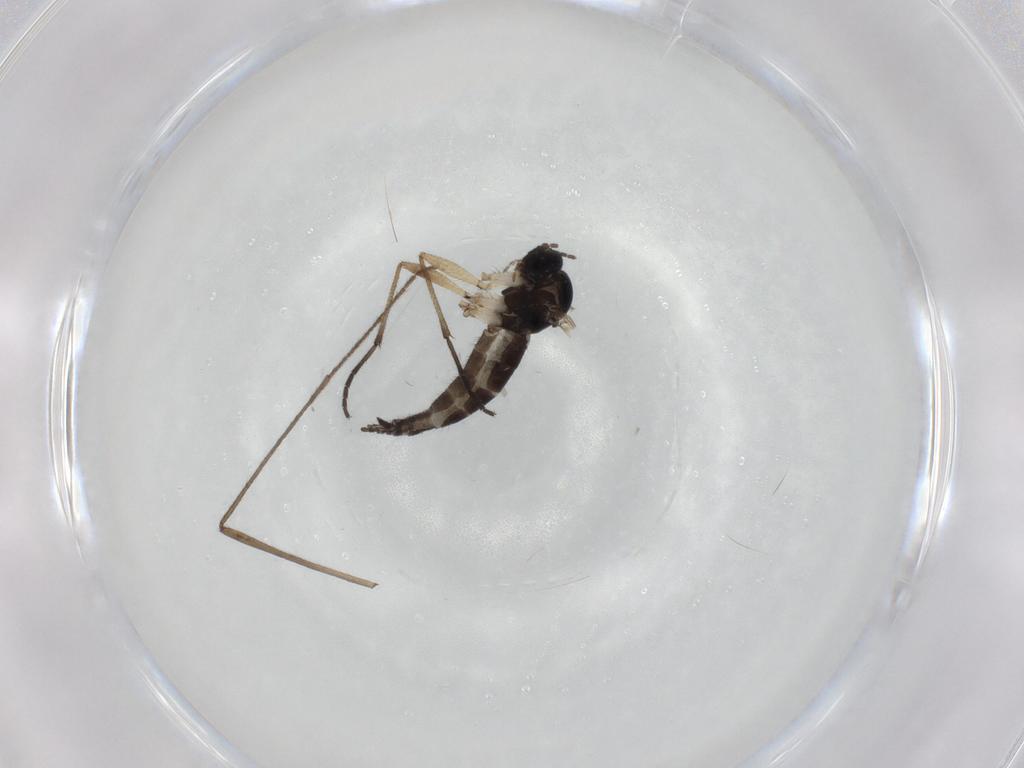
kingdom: Animalia
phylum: Arthropoda
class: Insecta
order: Diptera
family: Sciaridae
